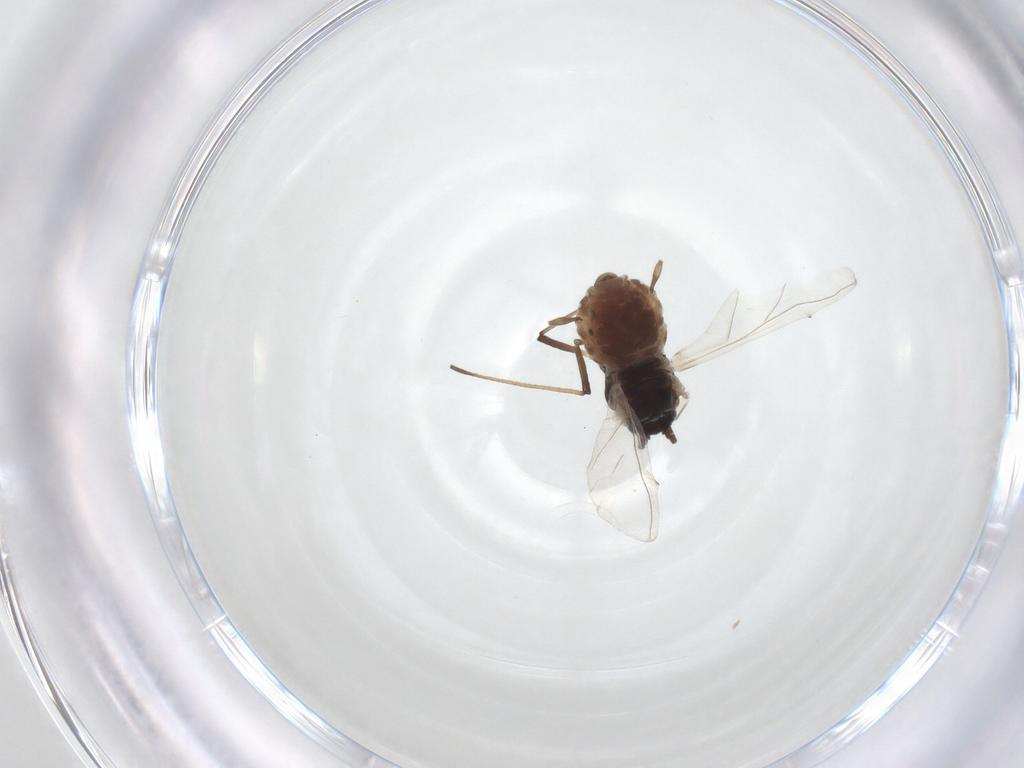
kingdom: Animalia
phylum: Arthropoda
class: Insecta
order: Hemiptera
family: Aphididae
